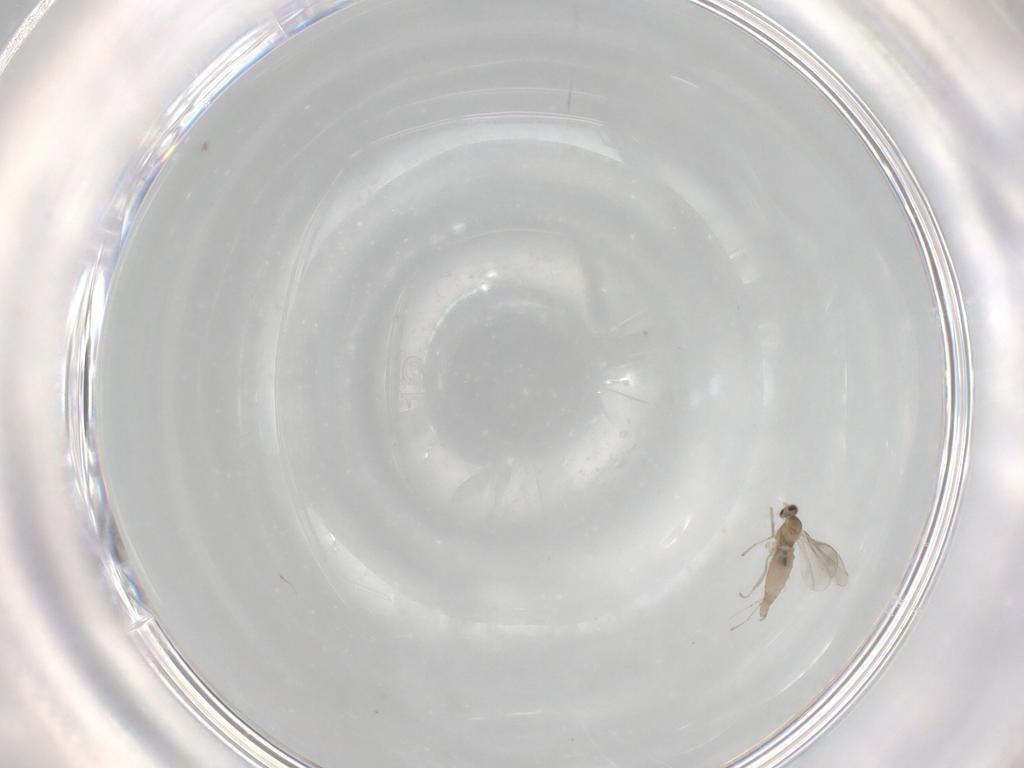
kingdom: Animalia
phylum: Arthropoda
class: Insecta
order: Diptera
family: Cecidomyiidae
